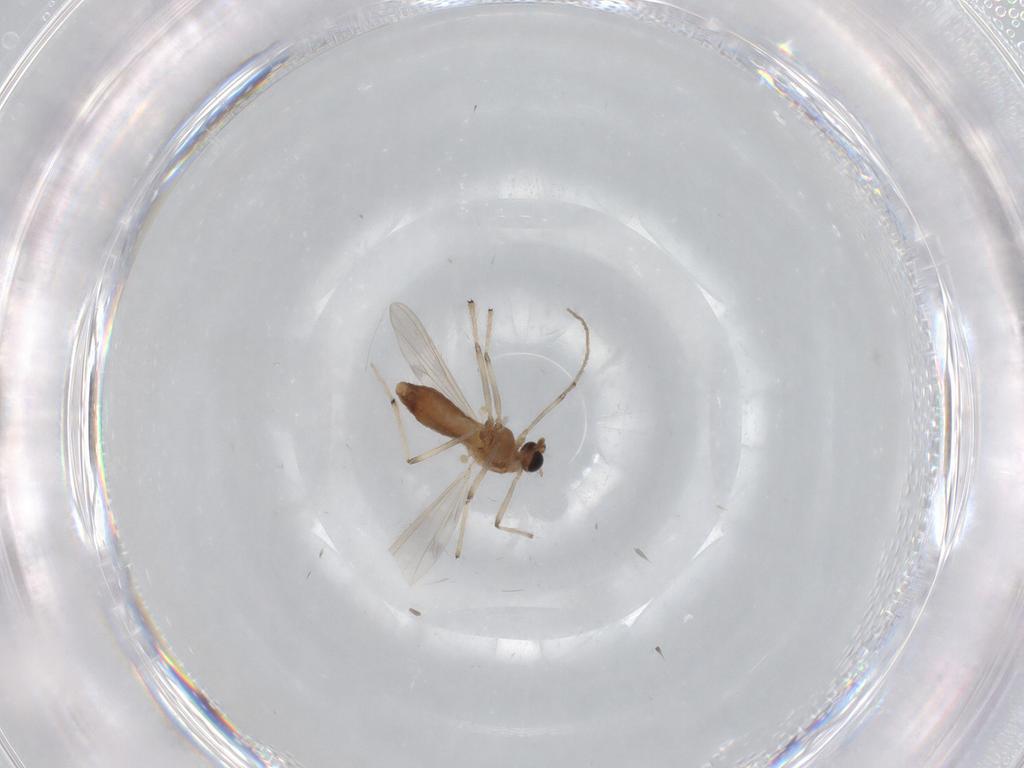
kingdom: Animalia
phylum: Arthropoda
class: Insecta
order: Diptera
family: Chironomidae
